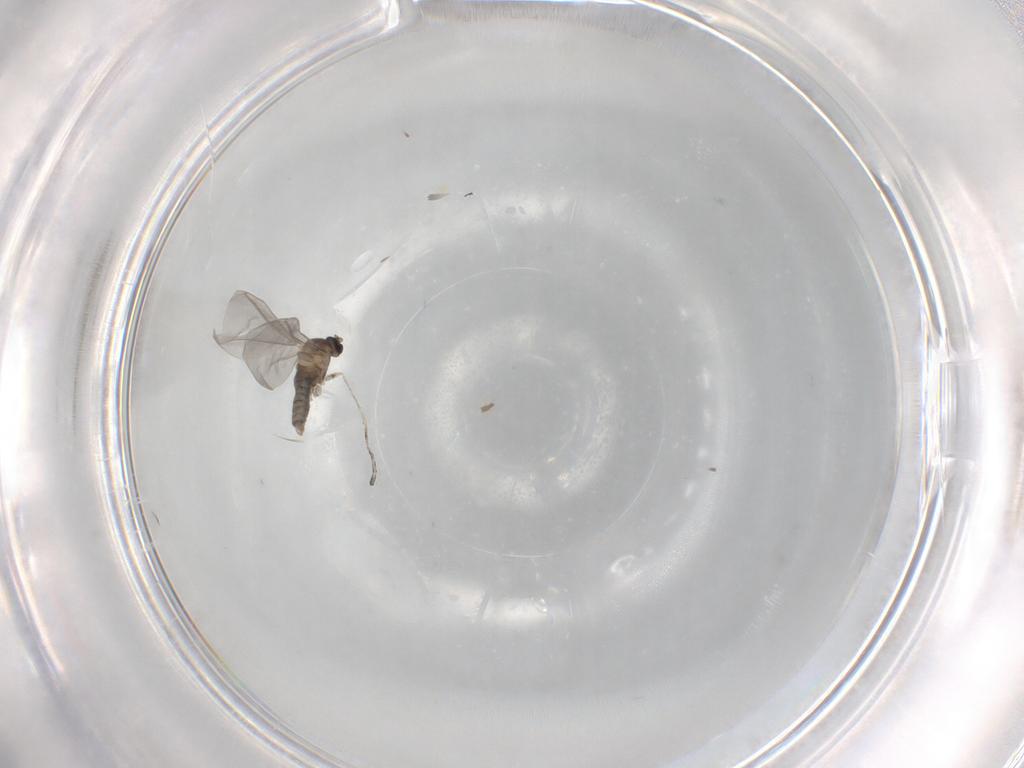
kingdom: Animalia
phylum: Arthropoda
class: Insecta
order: Diptera
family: Cecidomyiidae
